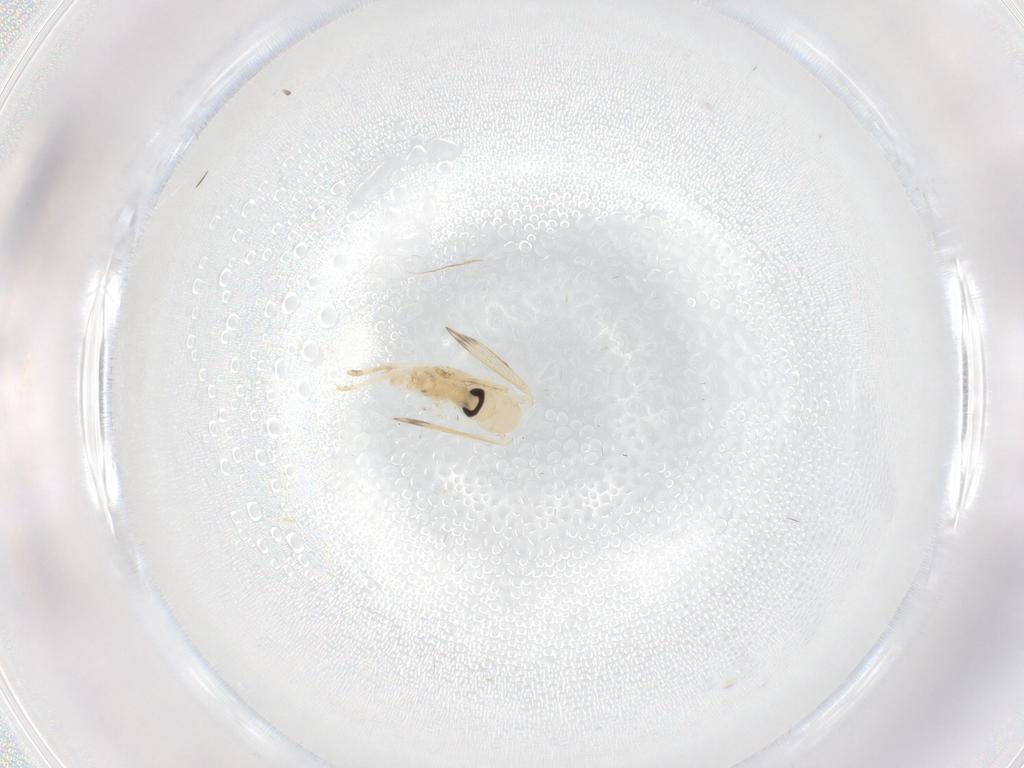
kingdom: Animalia
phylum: Arthropoda
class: Insecta
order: Diptera
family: Psychodidae
